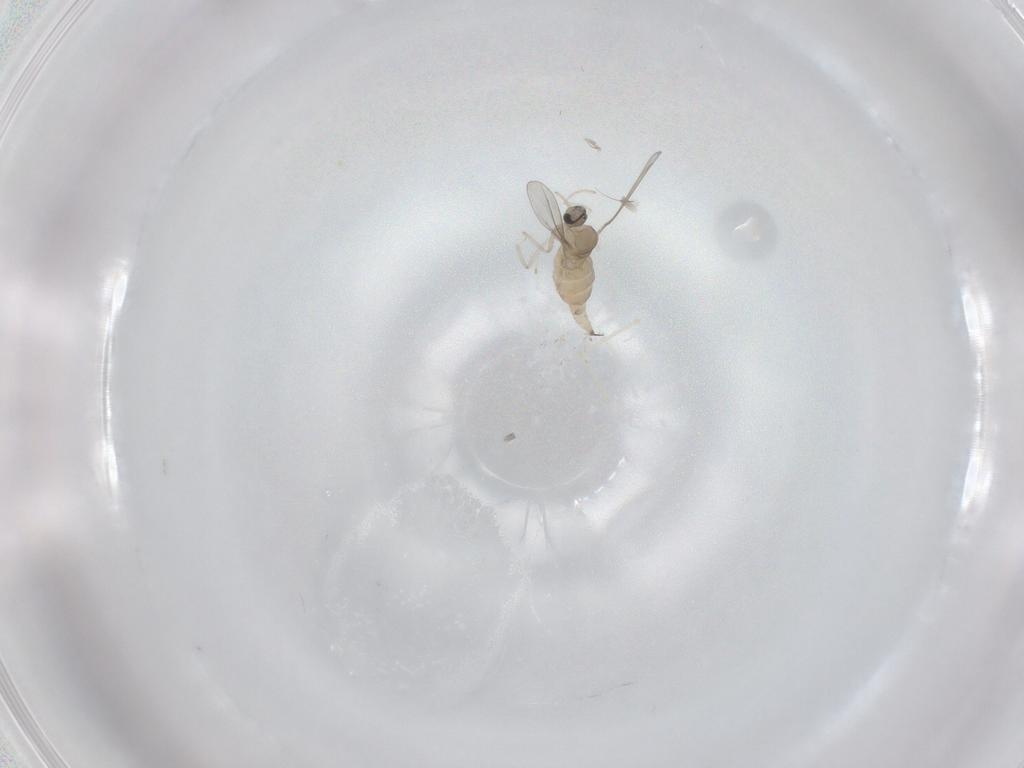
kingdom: Animalia
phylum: Arthropoda
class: Insecta
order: Diptera
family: Cecidomyiidae
